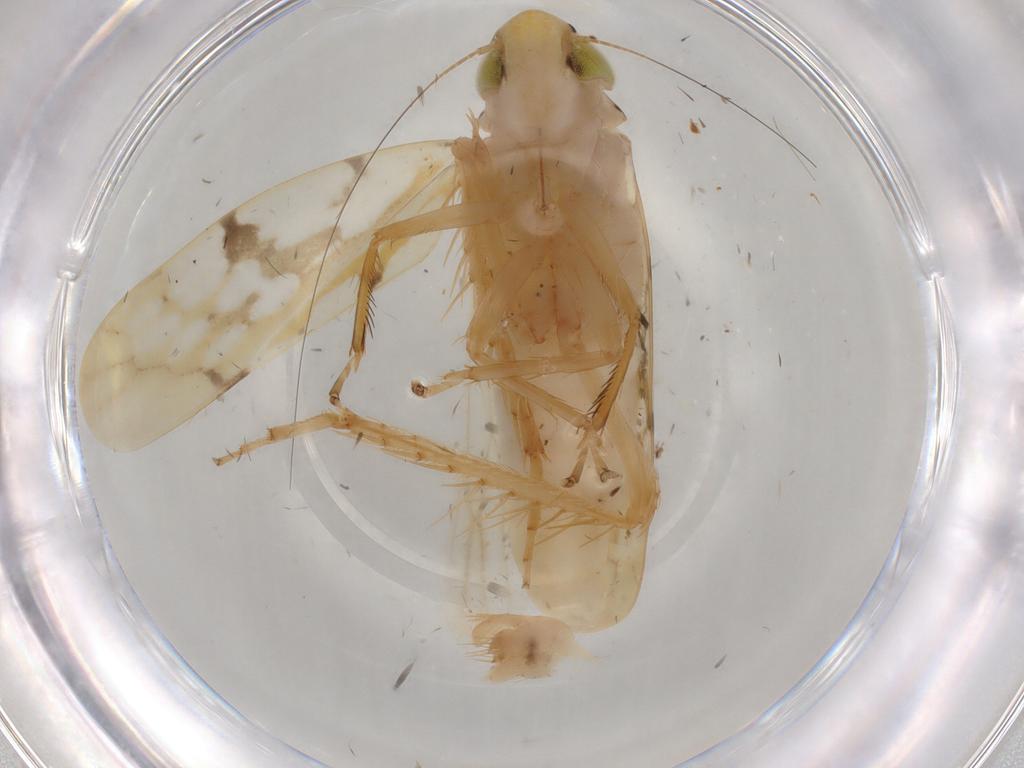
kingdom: Animalia
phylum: Arthropoda
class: Insecta
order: Hemiptera
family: Cicadellidae
